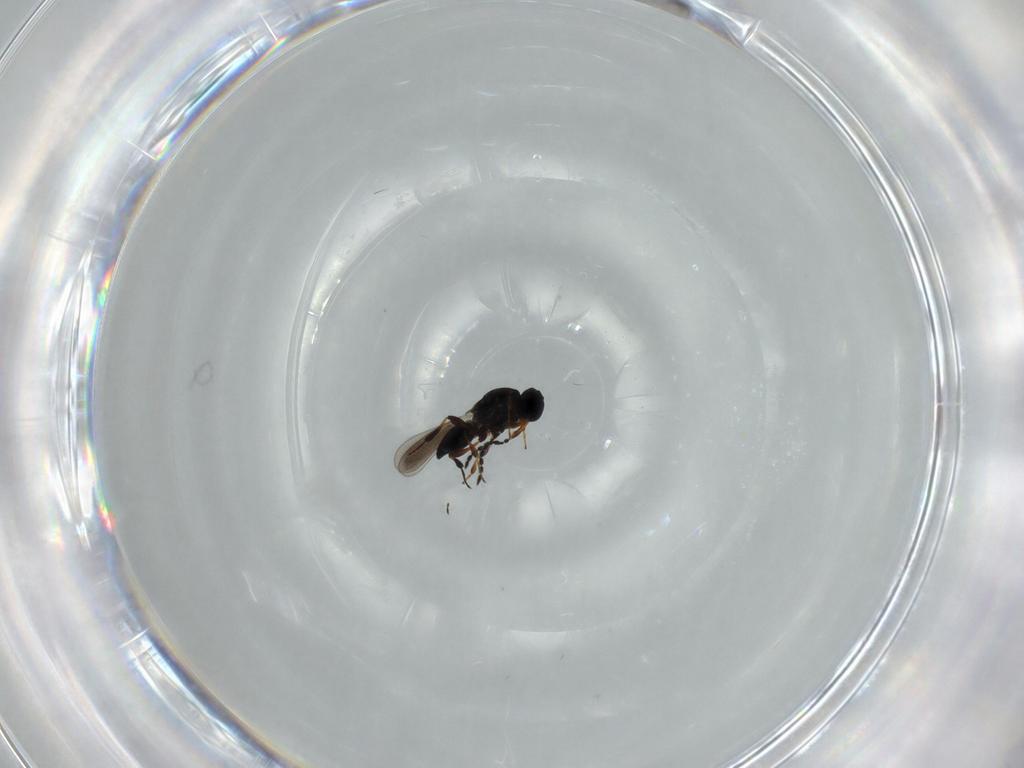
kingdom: Animalia
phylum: Arthropoda
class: Insecta
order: Hymenoptera
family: Platygastridae
